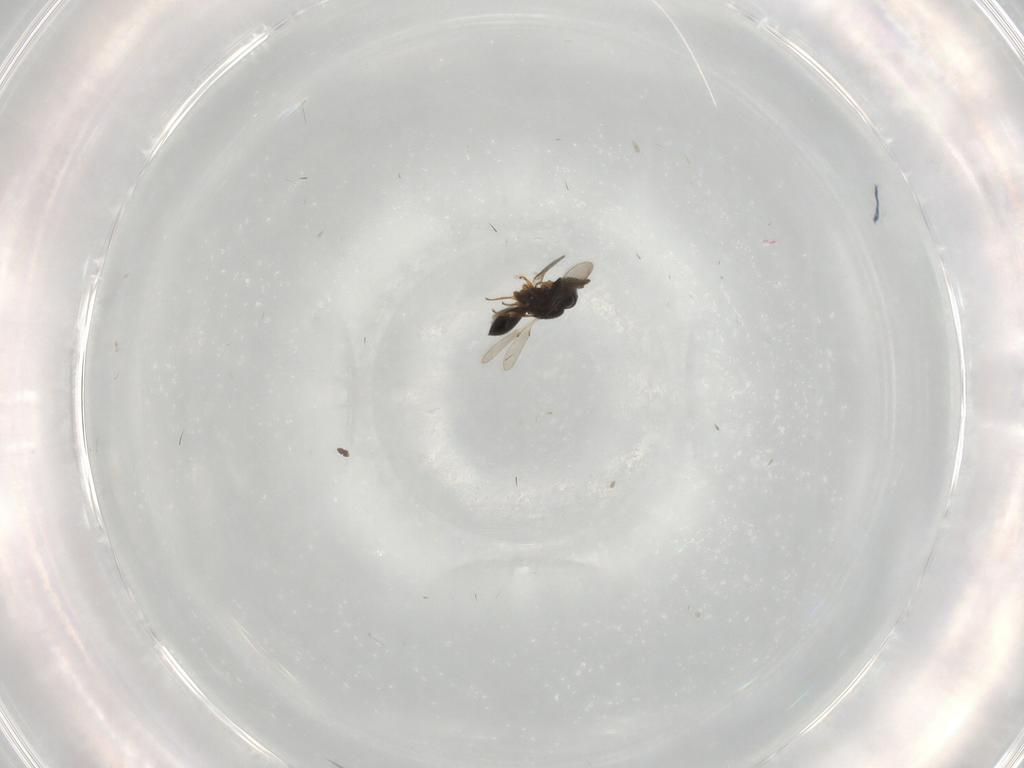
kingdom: Animalia
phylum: Arthropoda
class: Insecta
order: Hymenoptera
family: Scelionidae
